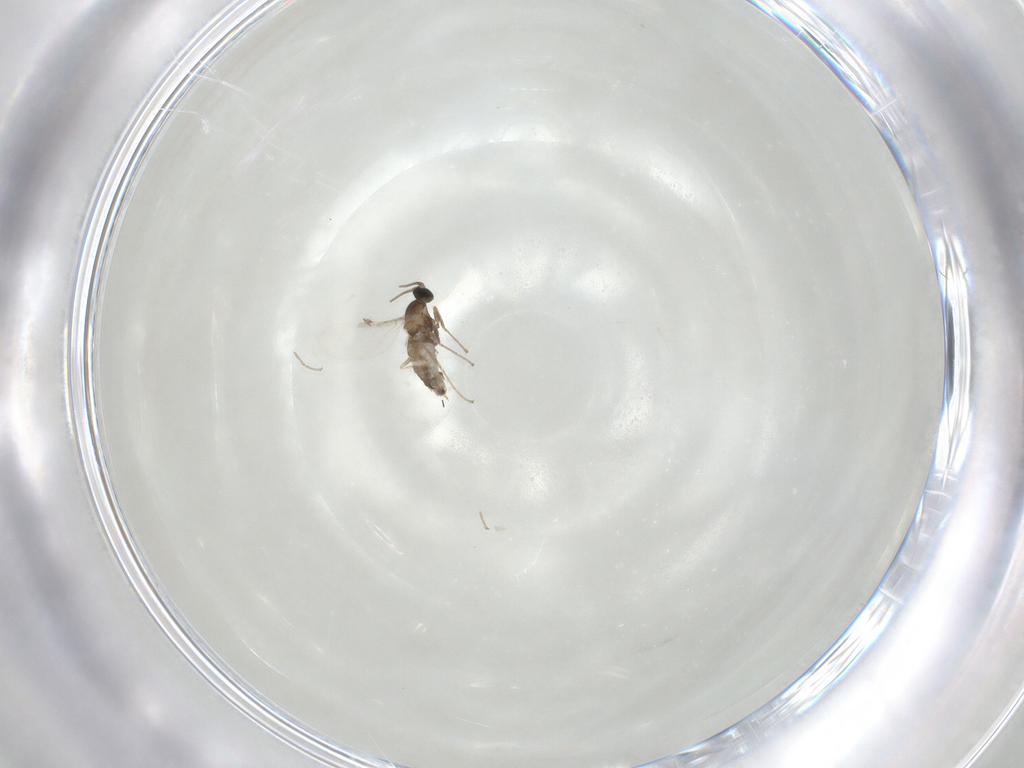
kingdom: Animalia
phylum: Arthropoda
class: Insecta
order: Diptera
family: Cecidomyiidae
